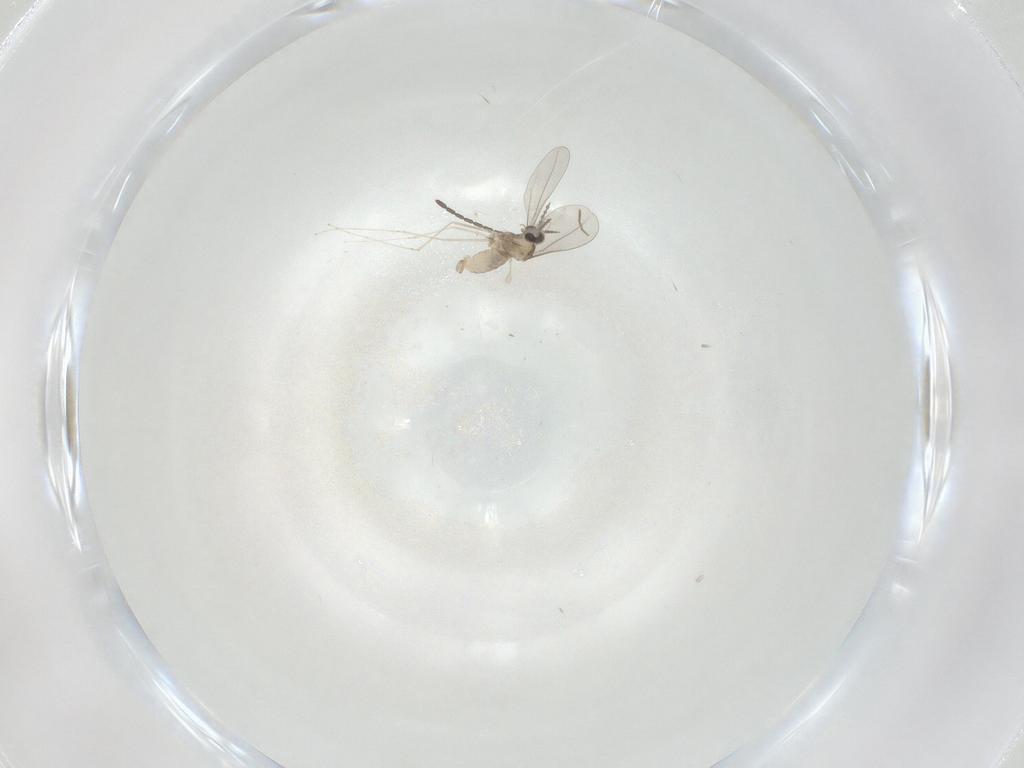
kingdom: Animalia
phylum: Arthropoda
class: Insecta
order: Diptera
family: Cecidomyiidae
